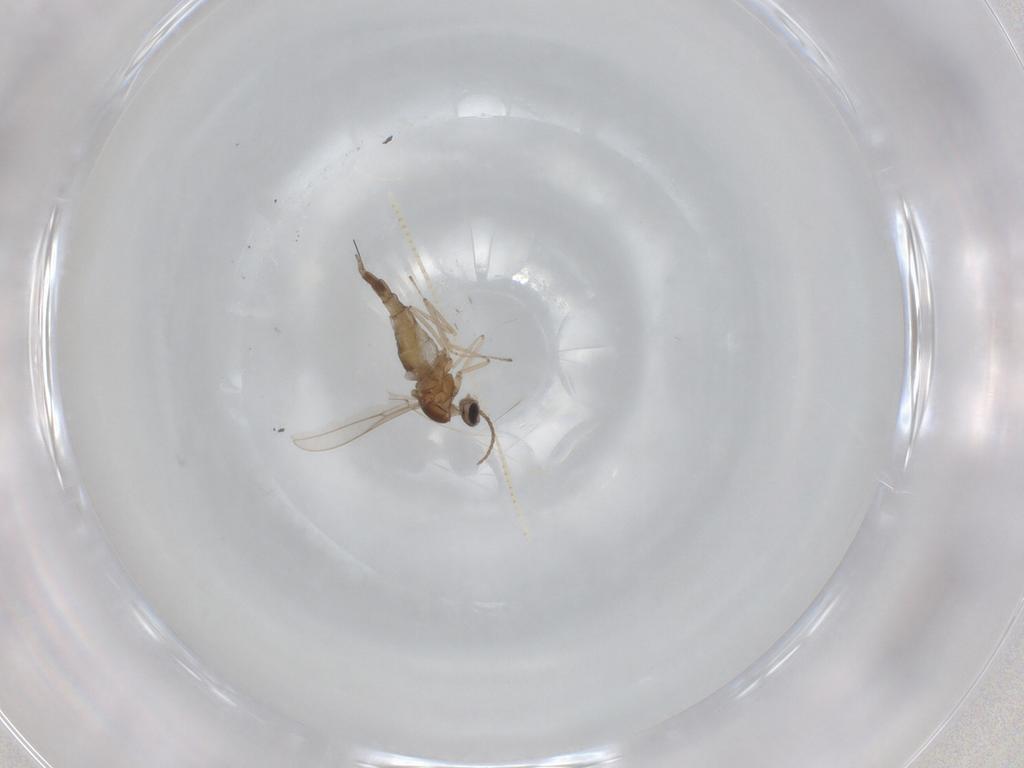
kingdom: Animalia
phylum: Arthropoda
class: Insecta
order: Diptera
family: Cecidomyiidae
